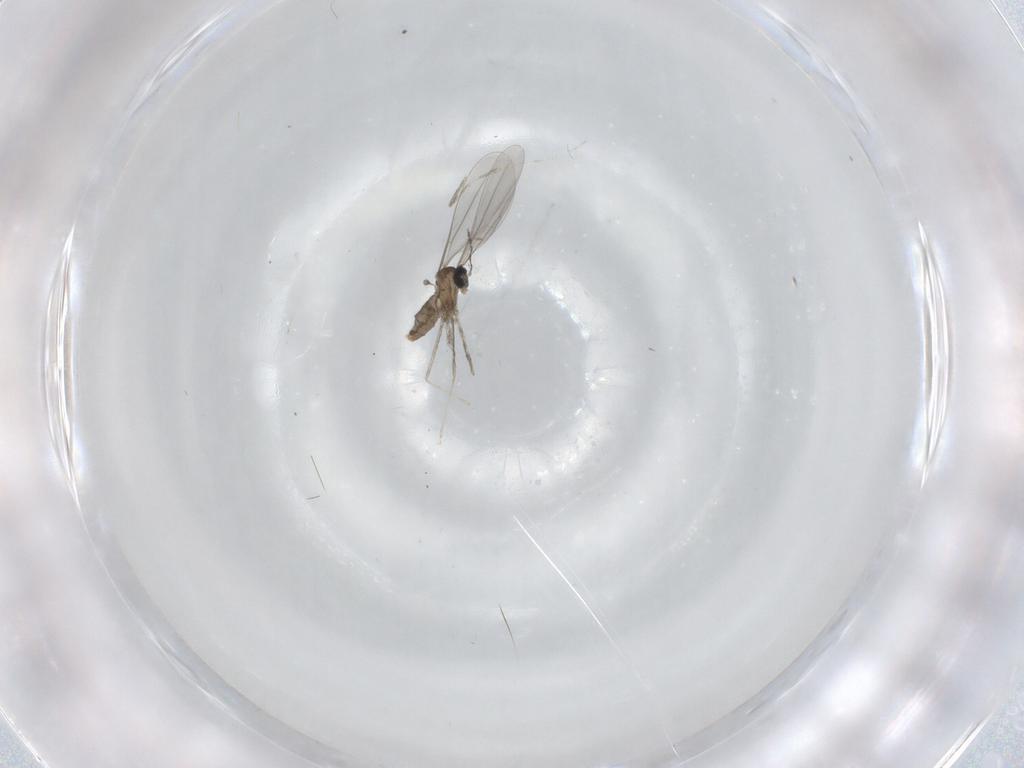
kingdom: Animalia
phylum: Arthropoda
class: Insecta
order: Diptera
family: Cecidomyiidae
